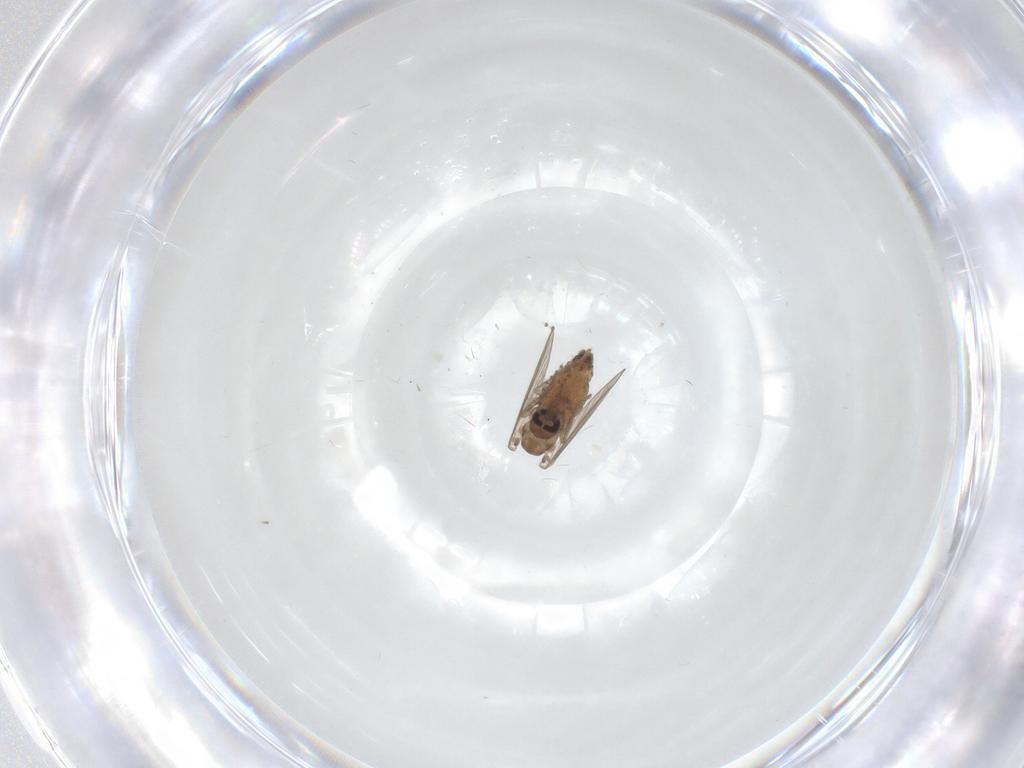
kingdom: Animalia
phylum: Arthropoda
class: Insecta
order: Diptera
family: Psychodidae
